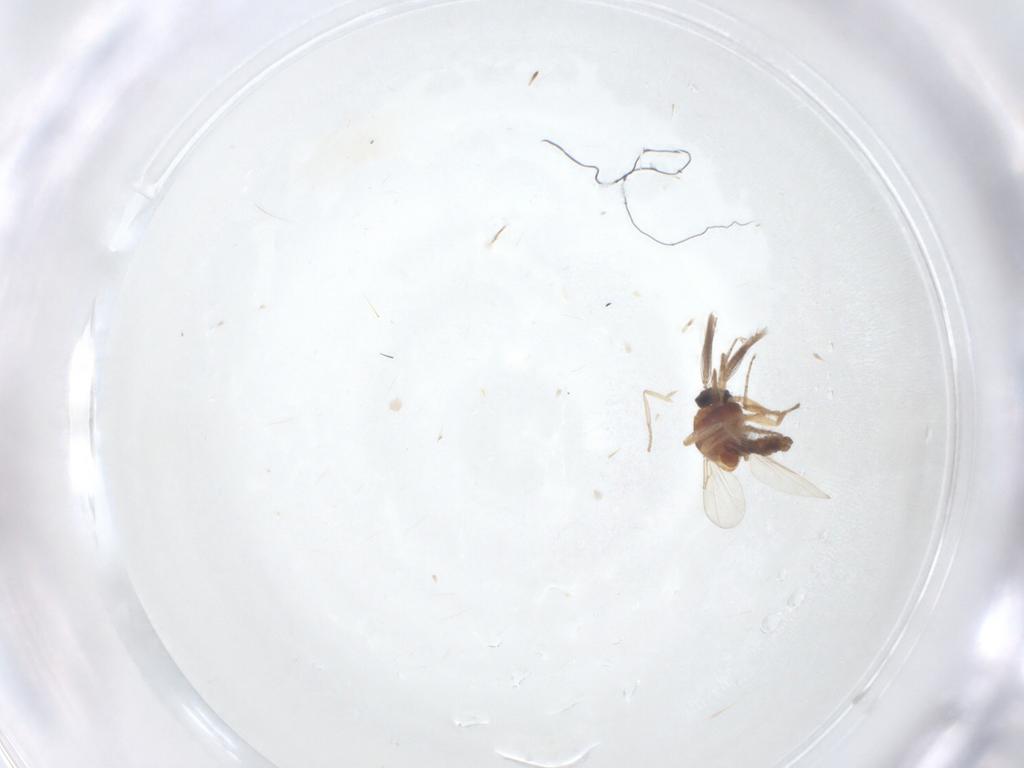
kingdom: Animalia
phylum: Arthropoda
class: Insecta
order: Diptera
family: Ceratopogonidae
